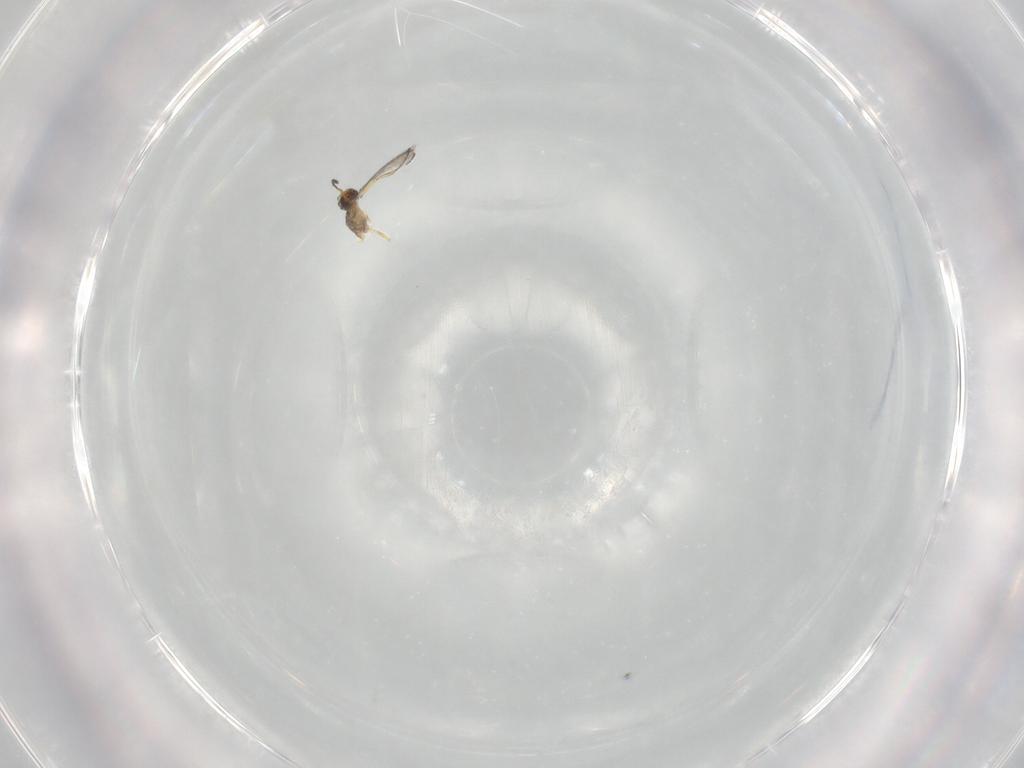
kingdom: Animalia
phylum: Arthropoda
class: Insecta
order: Hymenoptera
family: Mymaridae
